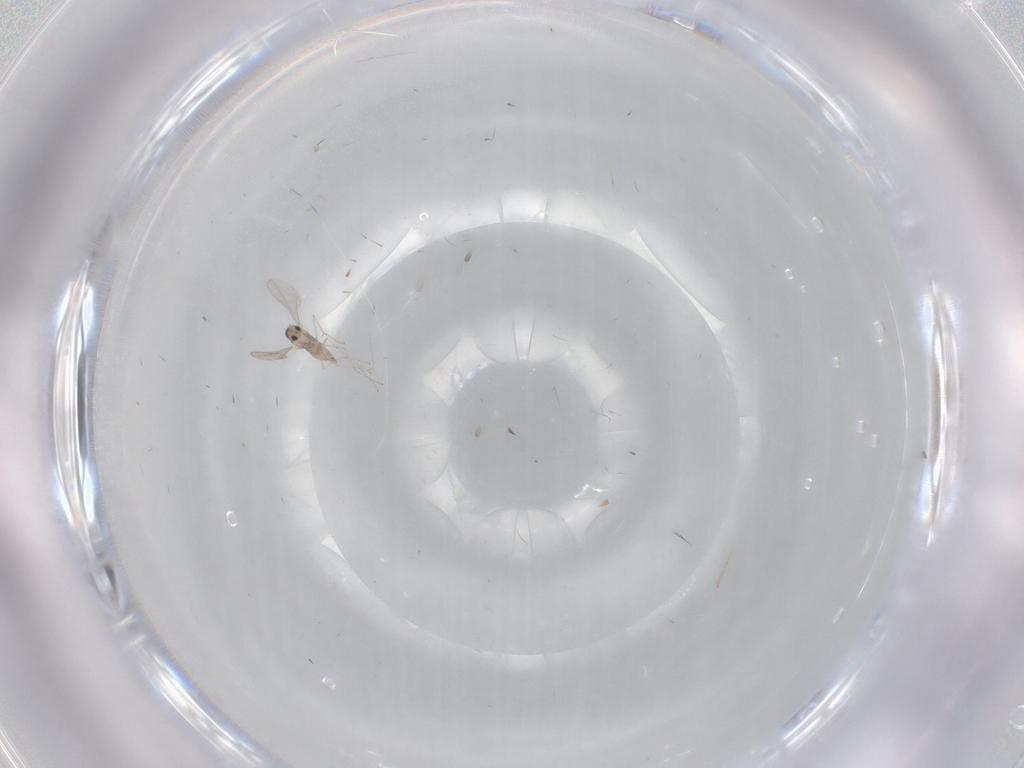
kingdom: Animalia
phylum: Arthropoda
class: Insecta
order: Diptera
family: Cecidomyiidae
